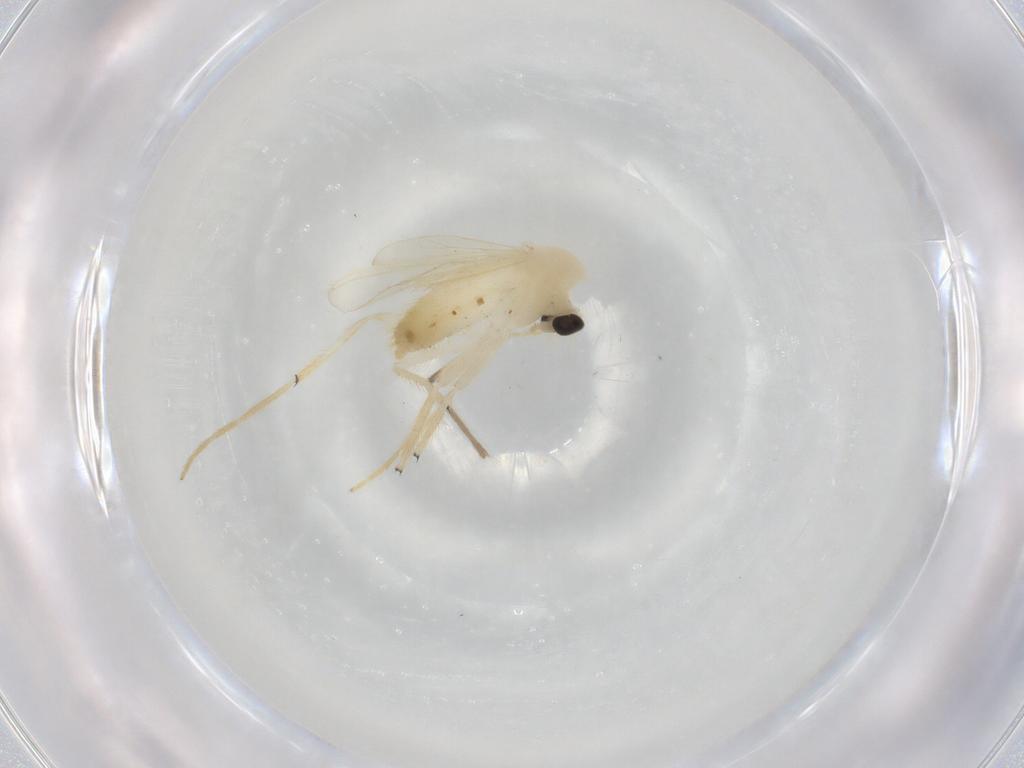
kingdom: Animalia
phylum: Arthropoda
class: Insecta
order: Diptera
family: Chironomidae
